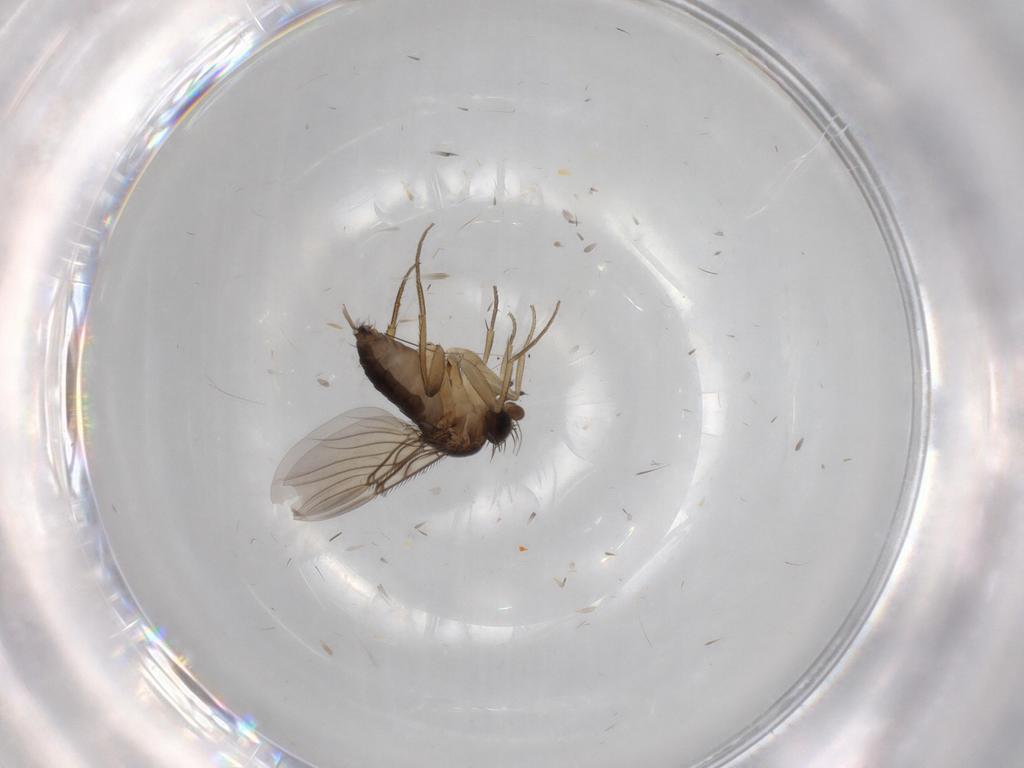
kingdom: Animalia
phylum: Arthropoda
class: Insecta
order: Diptera
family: Phoridae
